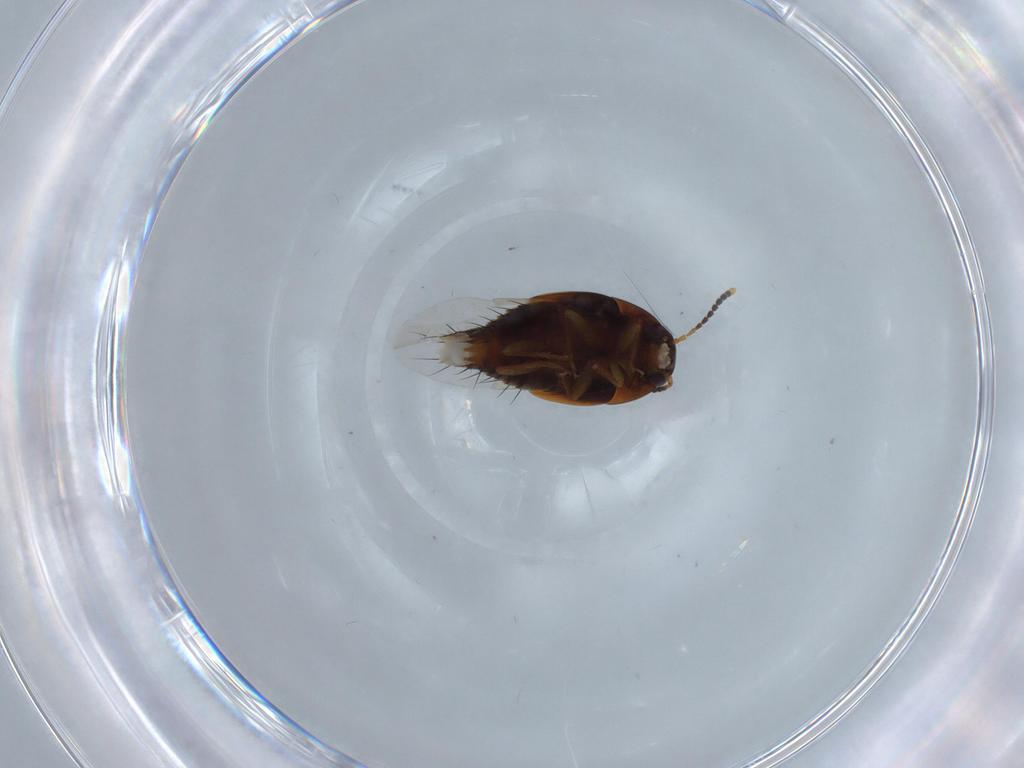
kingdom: Animalia
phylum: Arthropoda
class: Insecta
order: Coleoptera
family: Staphylinidae
